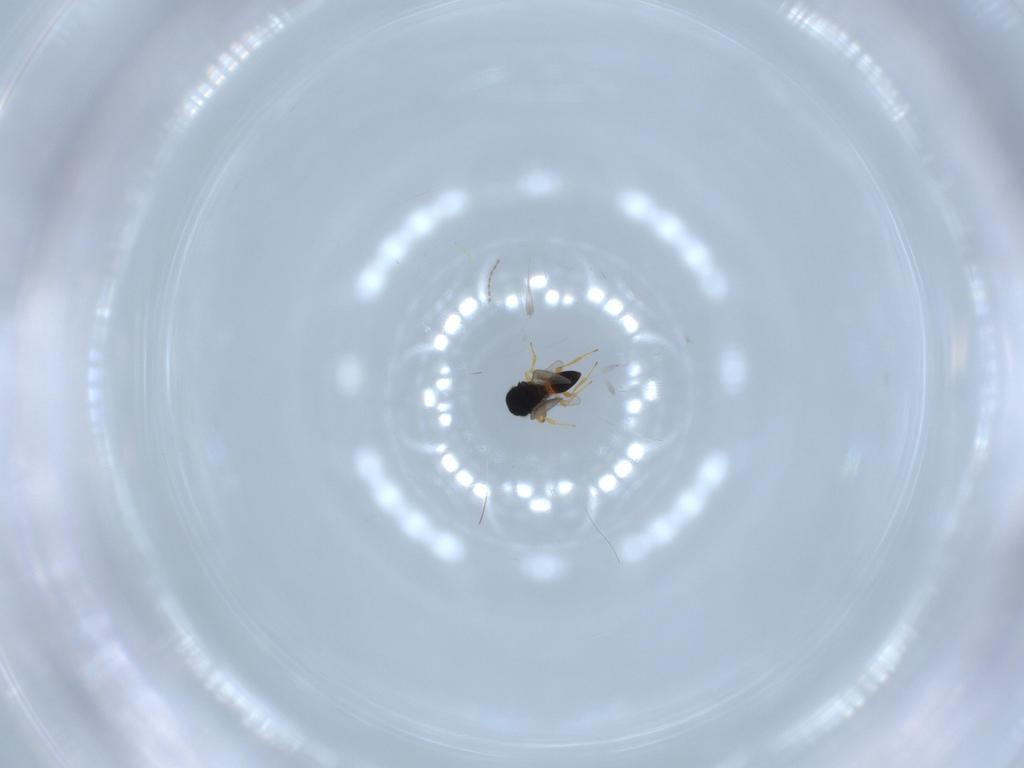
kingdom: Animalia
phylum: Arthropoda
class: Insecta
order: Hymenoptera
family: Platygastridae
